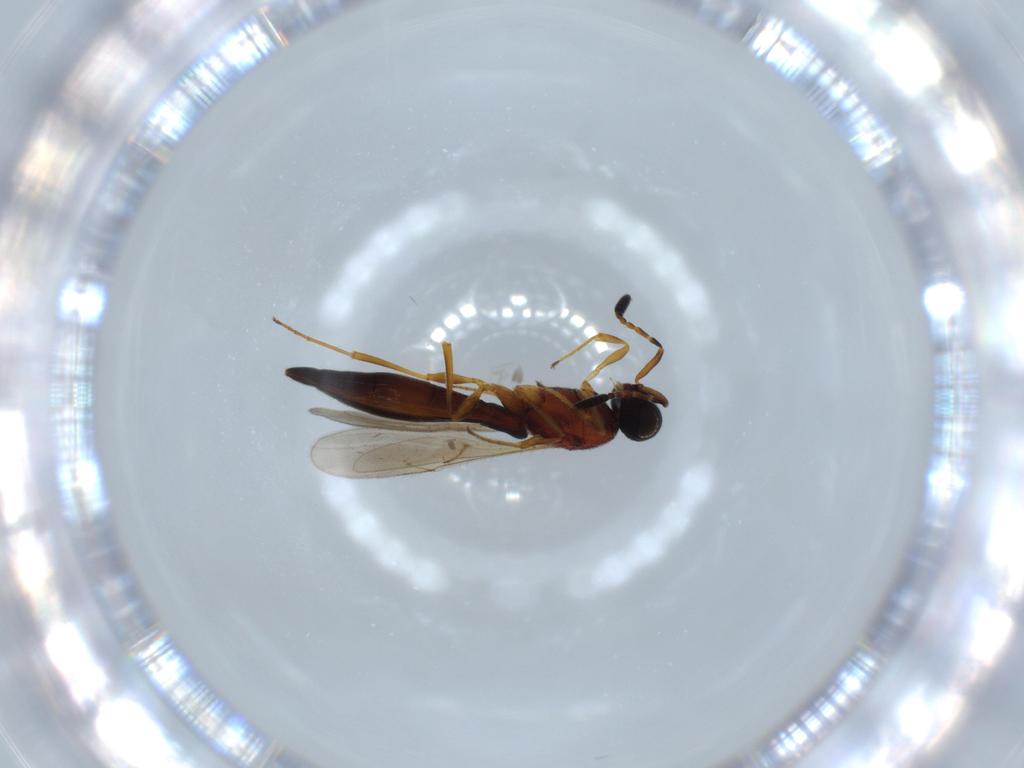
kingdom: Animalia
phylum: Arthropoda
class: Insecta
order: Hymenoptera
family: Scelionidae
